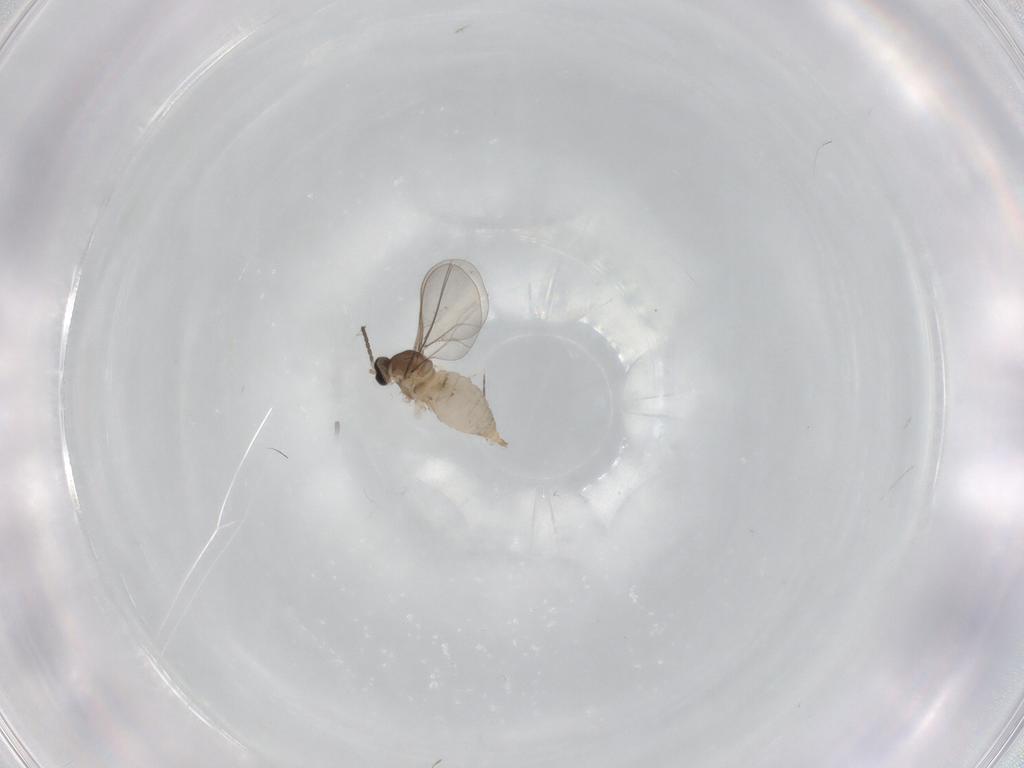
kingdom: Animalia
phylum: Arthropoda
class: Insecta
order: Diptera
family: Cecidomyiidae
